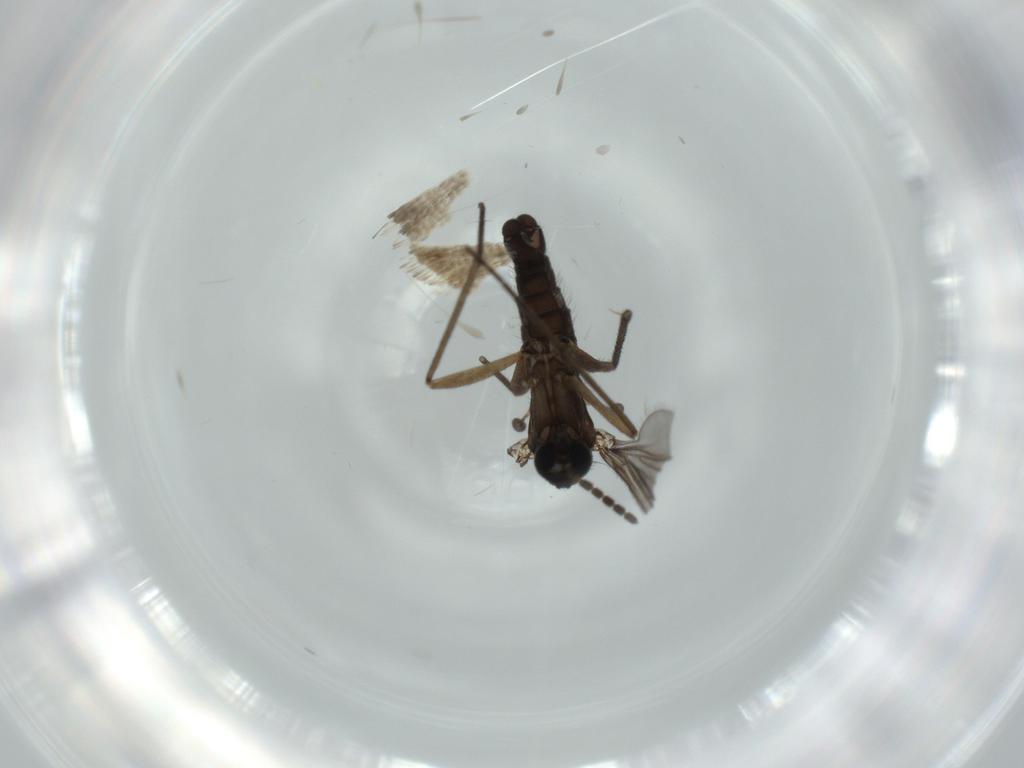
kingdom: Animalia
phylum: Arthropoda
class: Insecta
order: Diptera
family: Sciaridae
